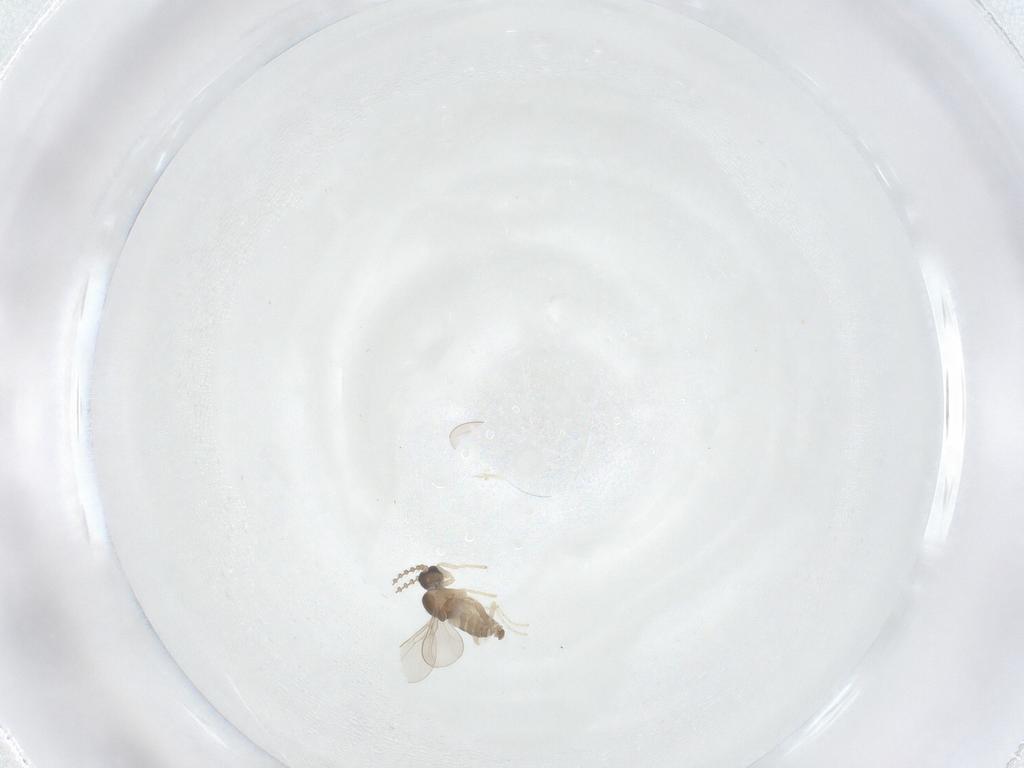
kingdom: Animalia
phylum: Arthropoda
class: Insecta
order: Diptera
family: Cecidomyiidae
